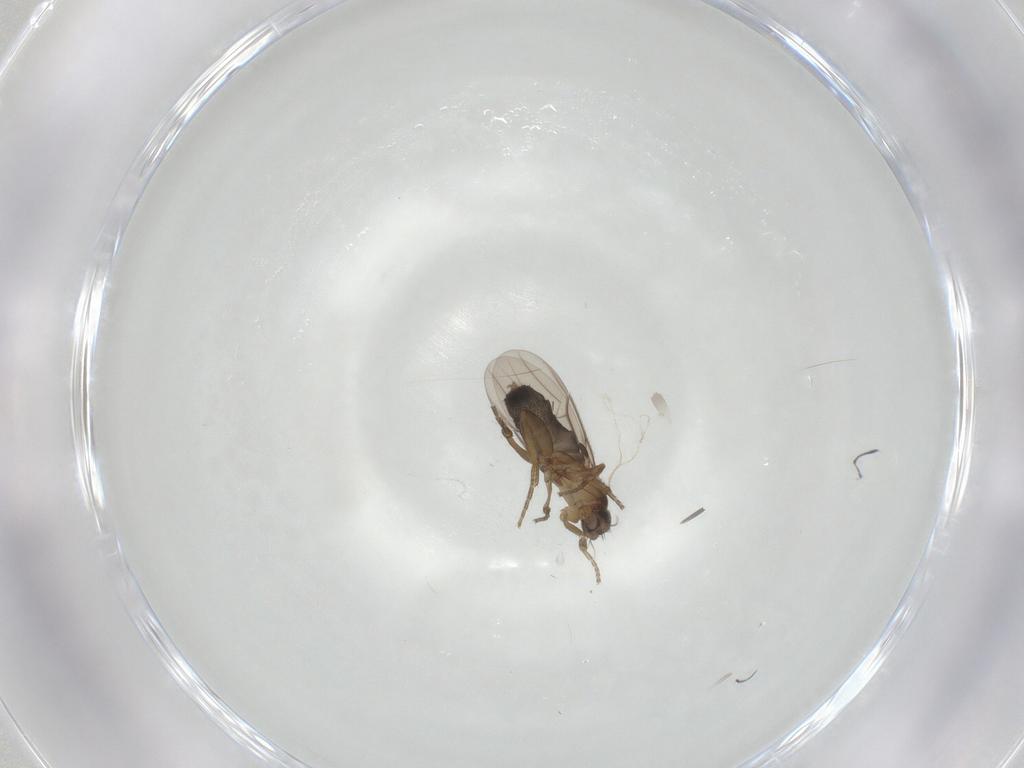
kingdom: Animalia
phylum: Arthropoda
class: Insecta
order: Diptera
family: Phoridae
